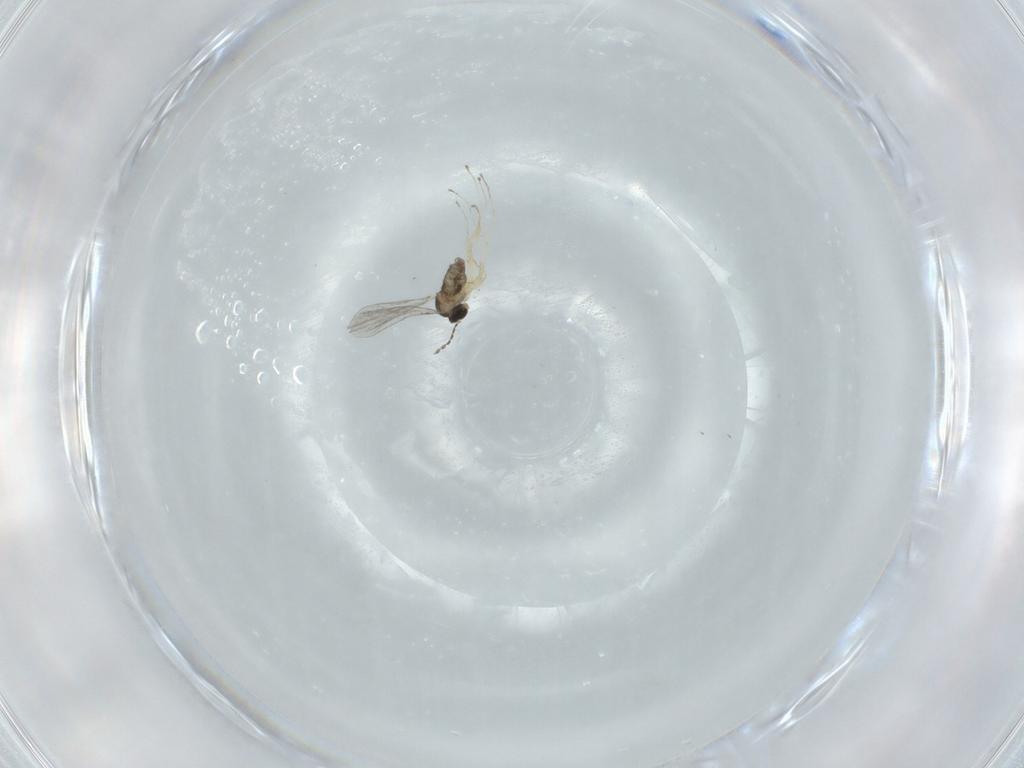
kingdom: Animalia
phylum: Arthropoda
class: Insecta
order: Diptera
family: Cecidomyiidae
